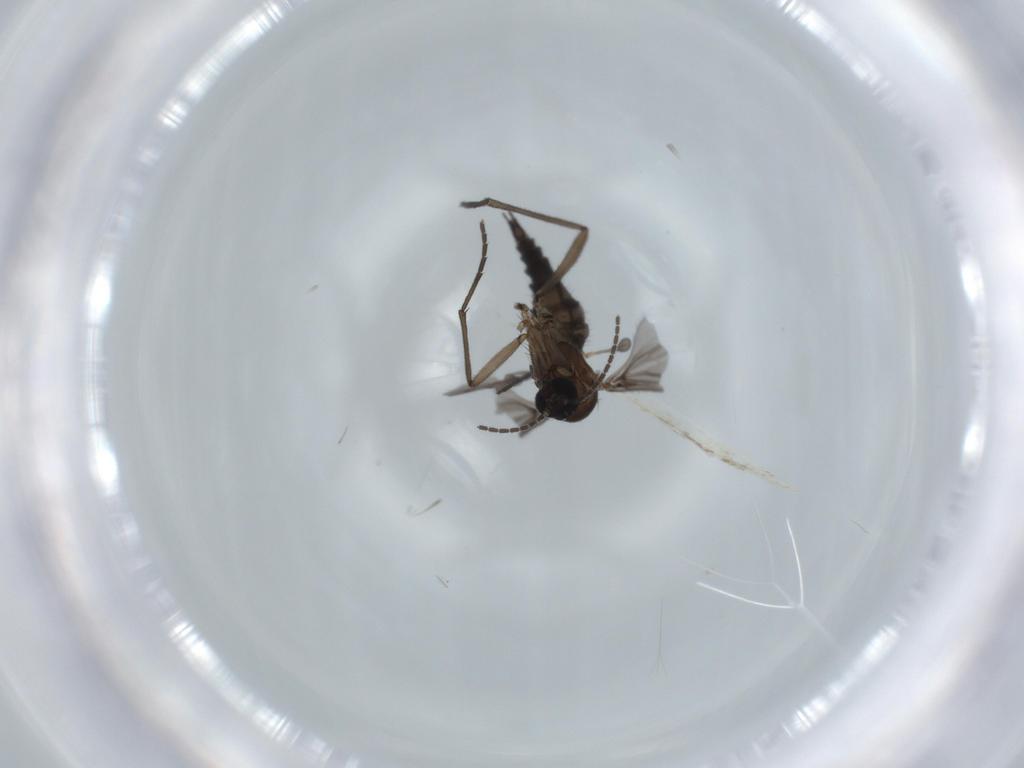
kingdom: Animalia
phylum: Arthropoda
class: Insecta
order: Diptera
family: Sciaridae
